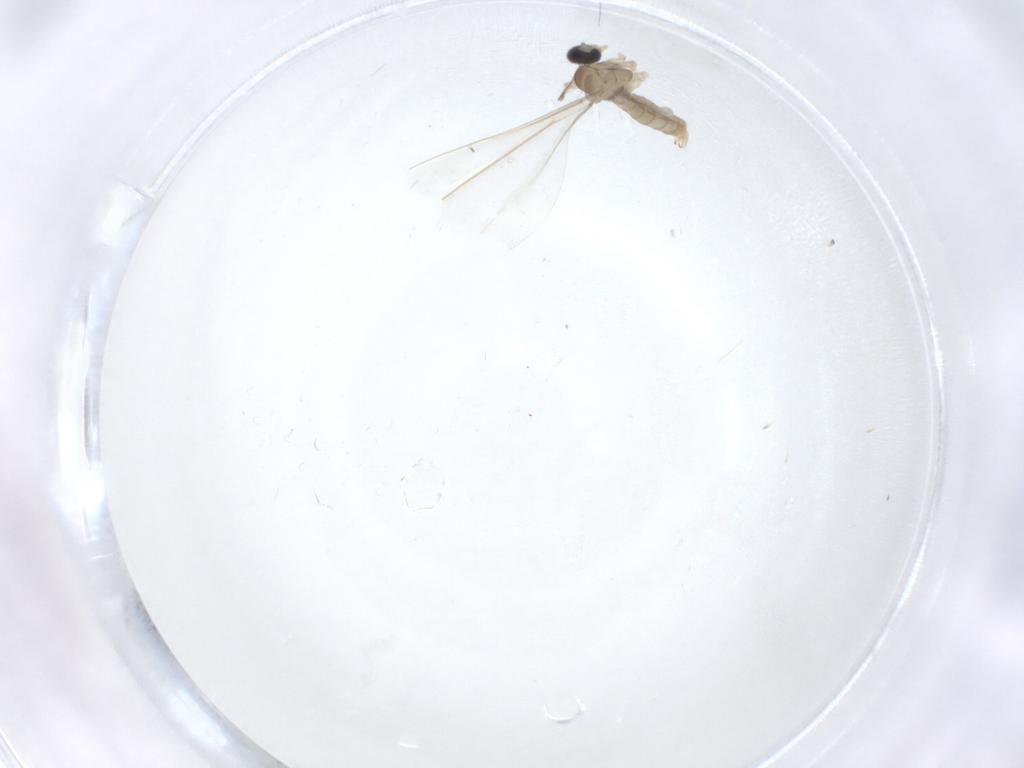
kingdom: Animalia
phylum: Arthropoda
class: Insecta
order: Diptera
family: Cecidomyiidae
